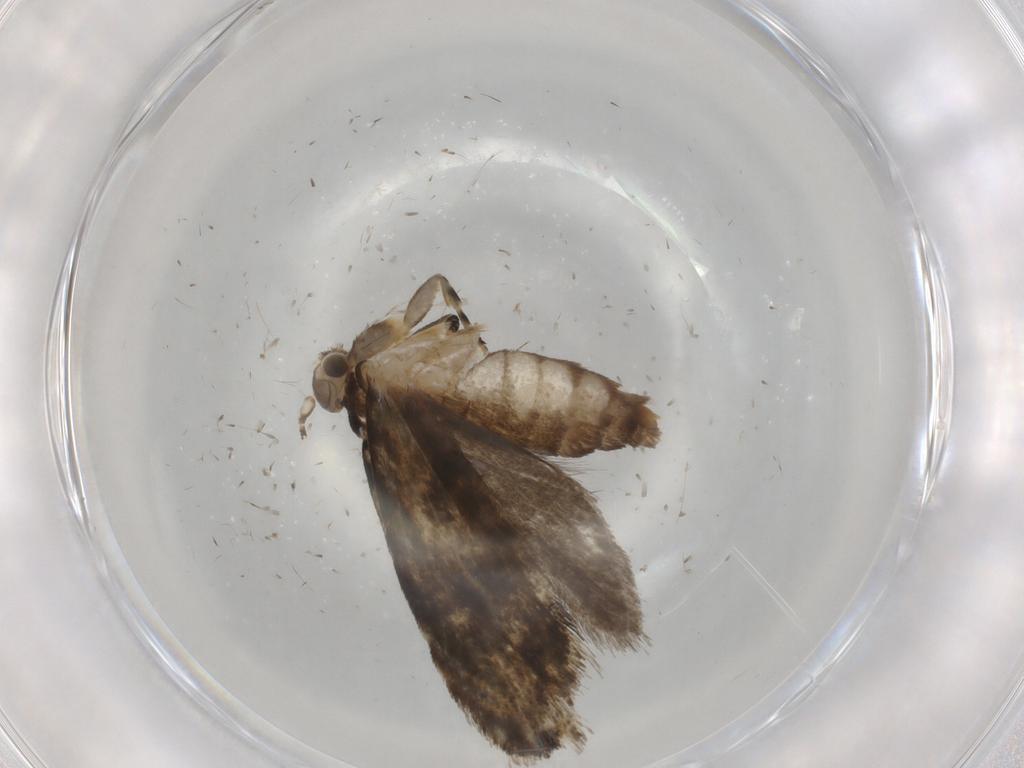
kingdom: Animalia
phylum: Arthropoda
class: Insecta
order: Lepidoptera
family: Tineidae
